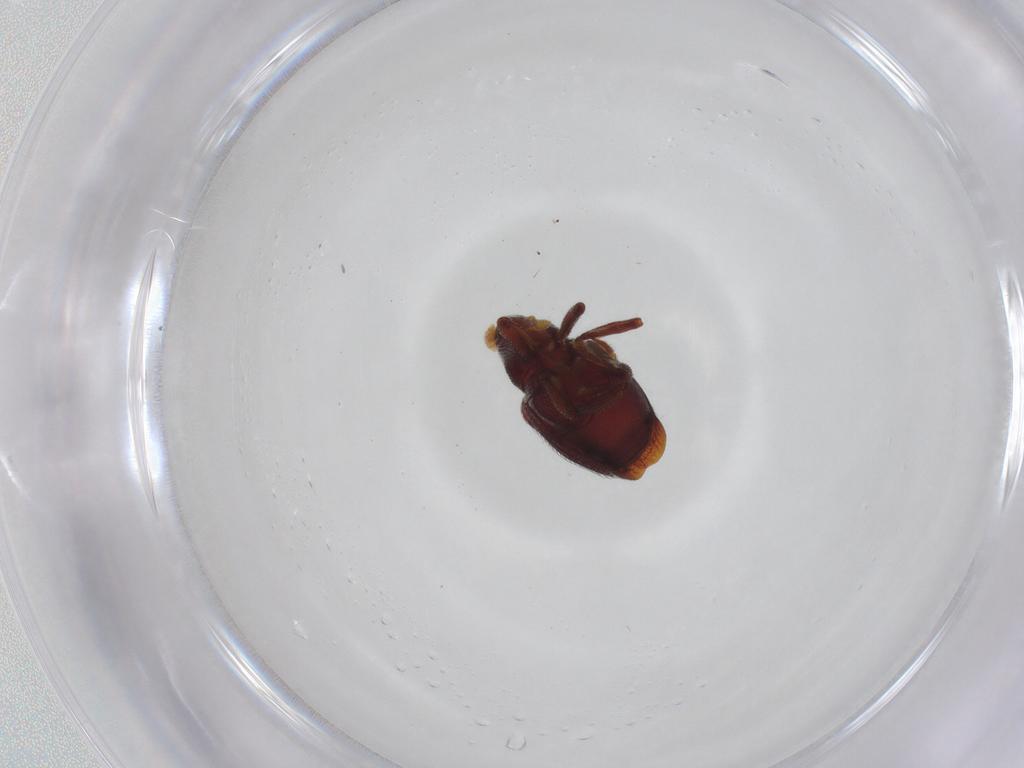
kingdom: Animalia
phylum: Arthropoda
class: Insecta
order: Coleoptera
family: Curculionidae
